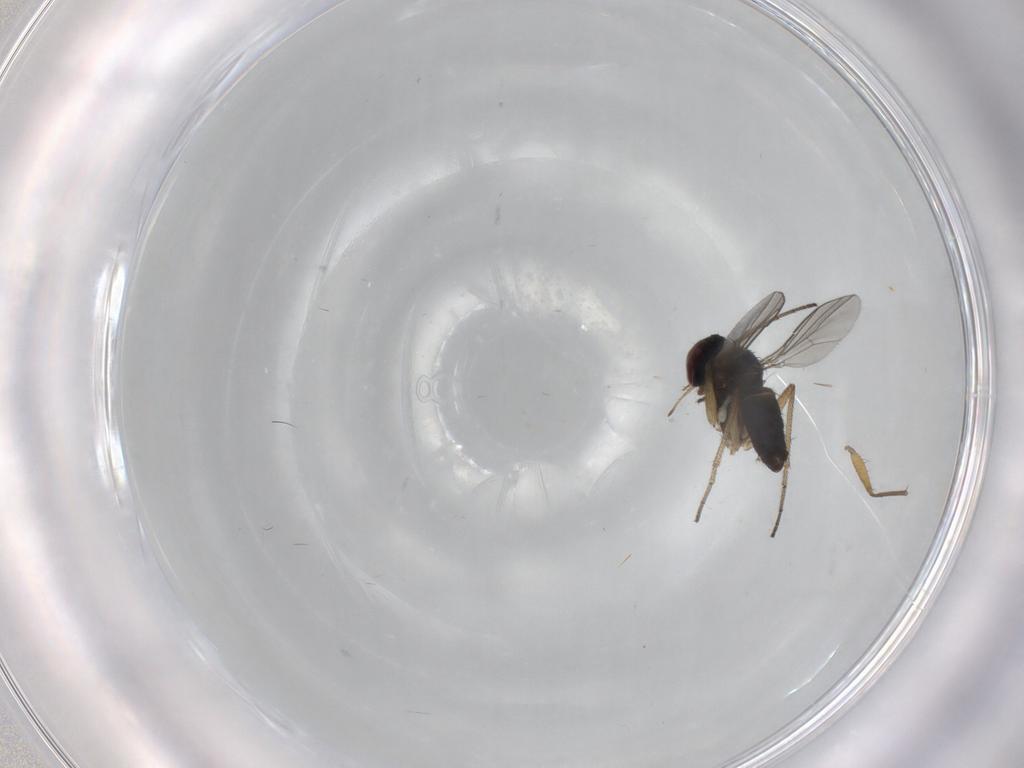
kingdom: Animalia
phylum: Arthropoda
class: Insecta
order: Diptera
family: Dolichopodidae
